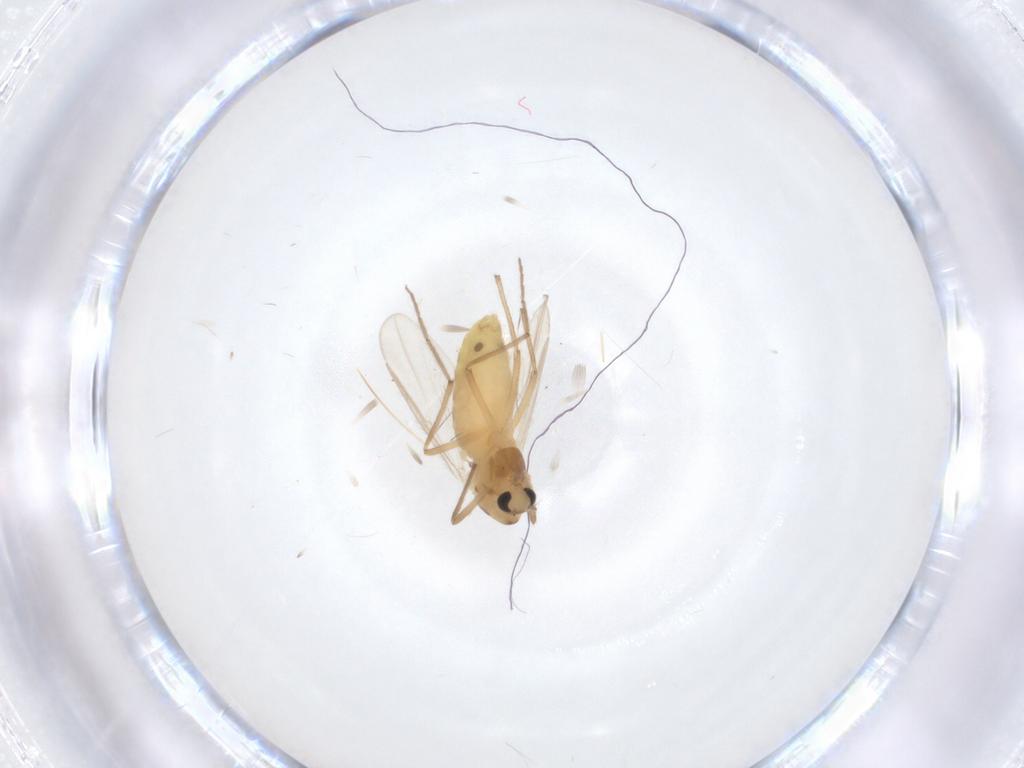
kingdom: Animalia
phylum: Arthropoda
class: Insecta
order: Diptera
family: Chironomidae
